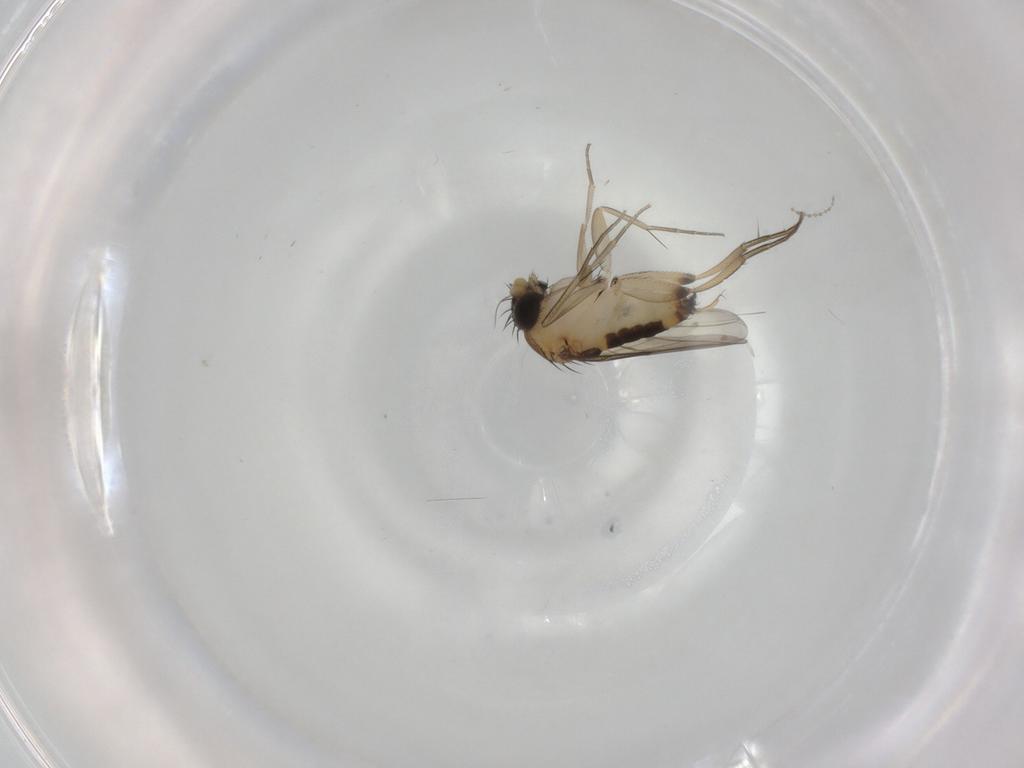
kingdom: Animalia
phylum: Arthropoda
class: Insecta
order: Diptera
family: Phoridae
